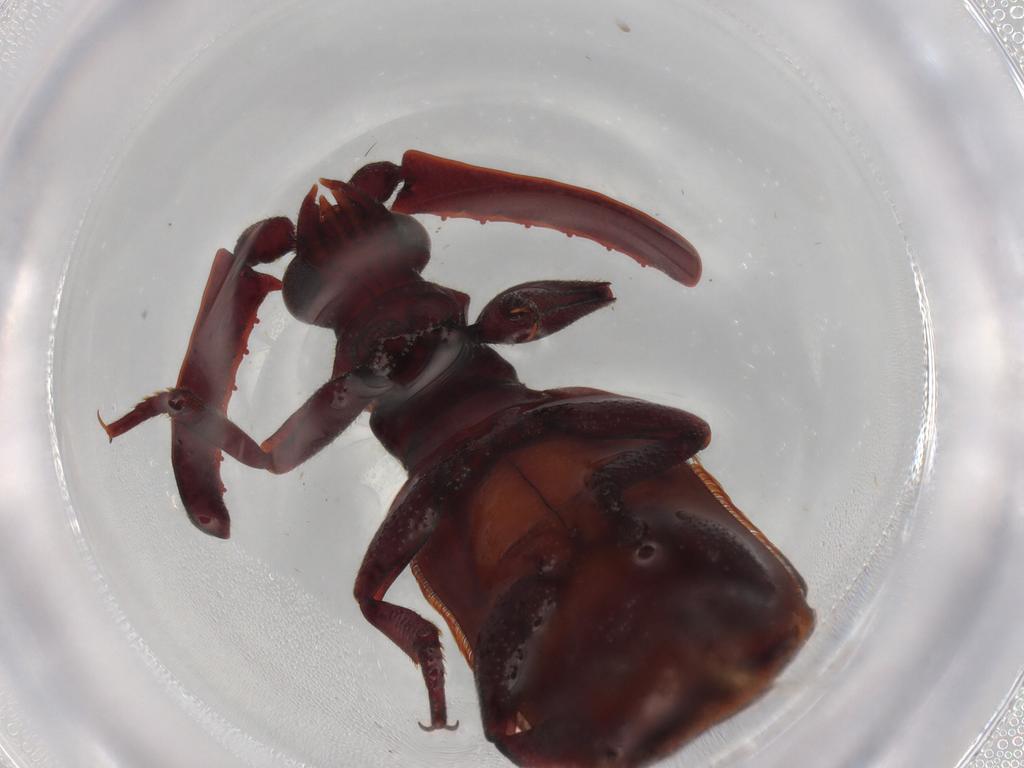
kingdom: Animalia
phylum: Arthropoda
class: Insecta
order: Coleoptera
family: Carabidae
